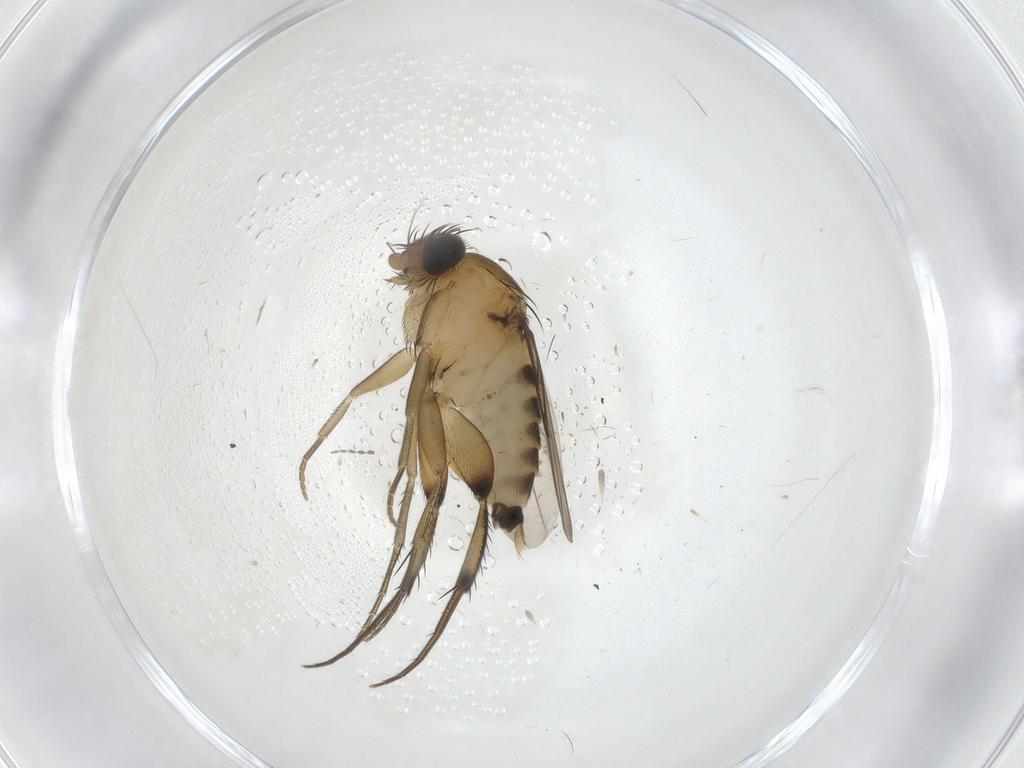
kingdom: Animalia
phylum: Arthropoda
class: Insecta
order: Diptera
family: Phoridae
